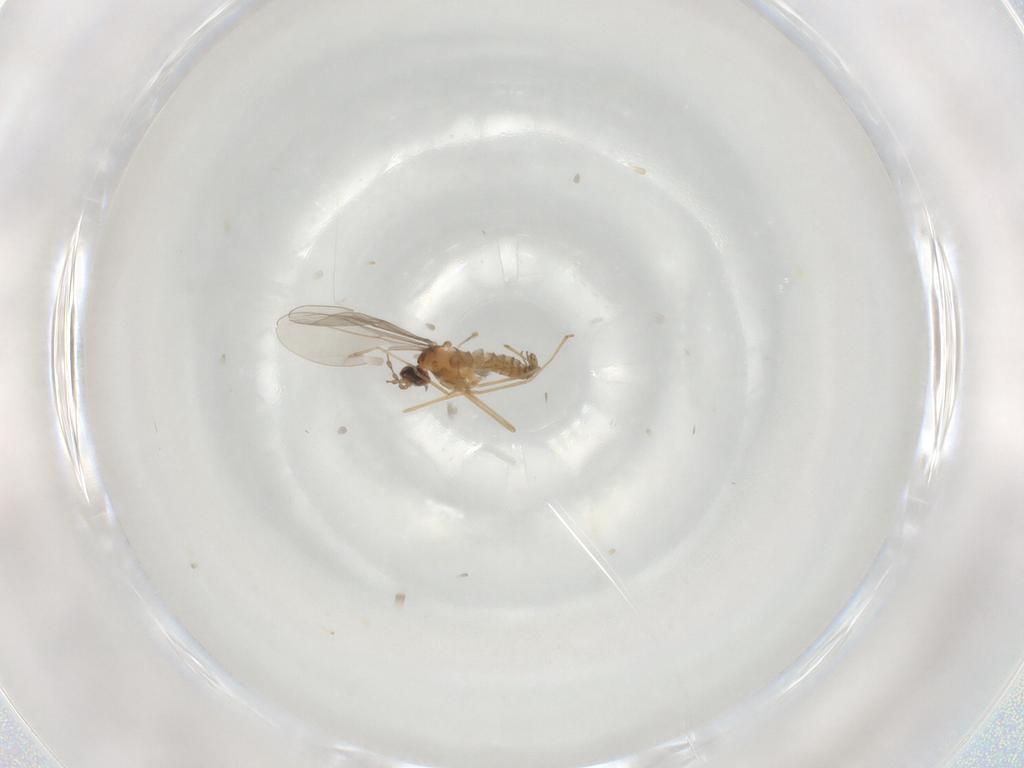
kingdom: Animalia
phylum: Arthropoda
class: Insecta
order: Diptera
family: Cecidomyiidae
